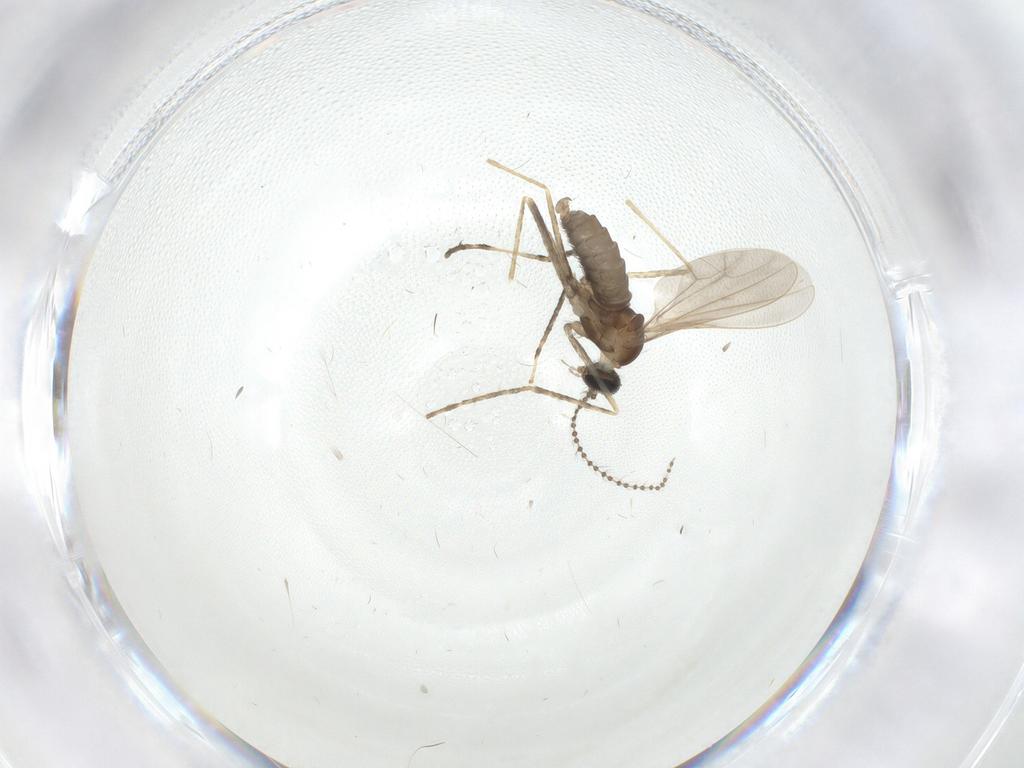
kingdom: Animalia
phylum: Arthropoda
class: Insecta
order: Diptera
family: Cecidomyiidae
